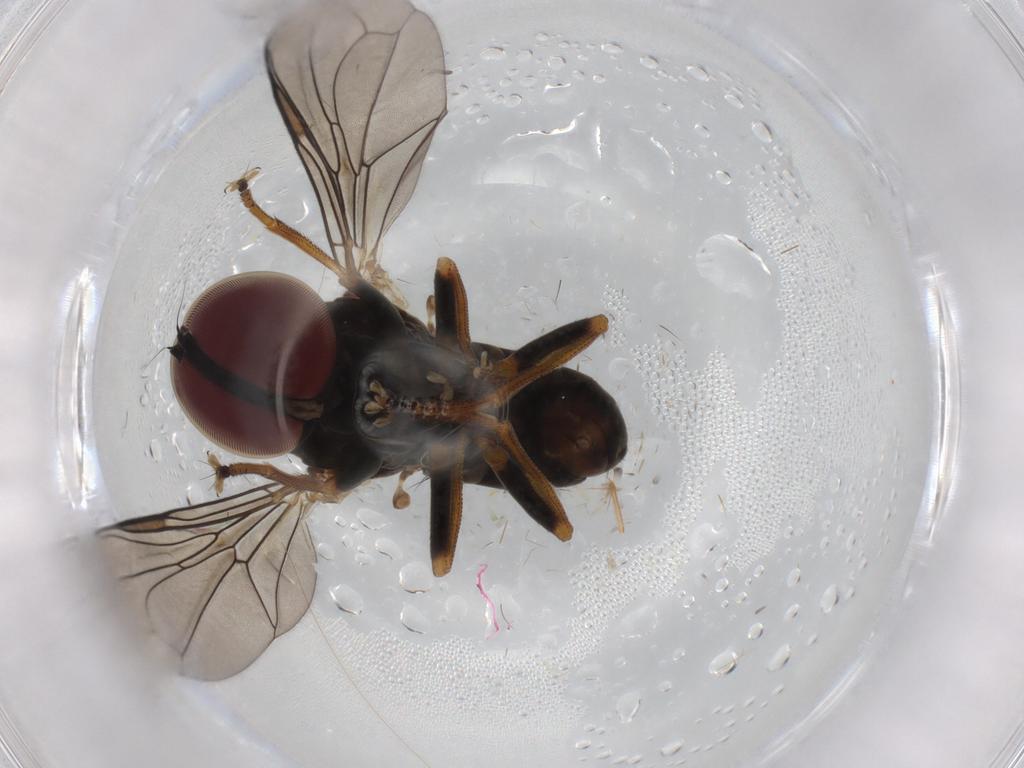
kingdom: Animalia
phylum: Arthropoda
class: Insecta
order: Diptera
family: Pipunculidae
